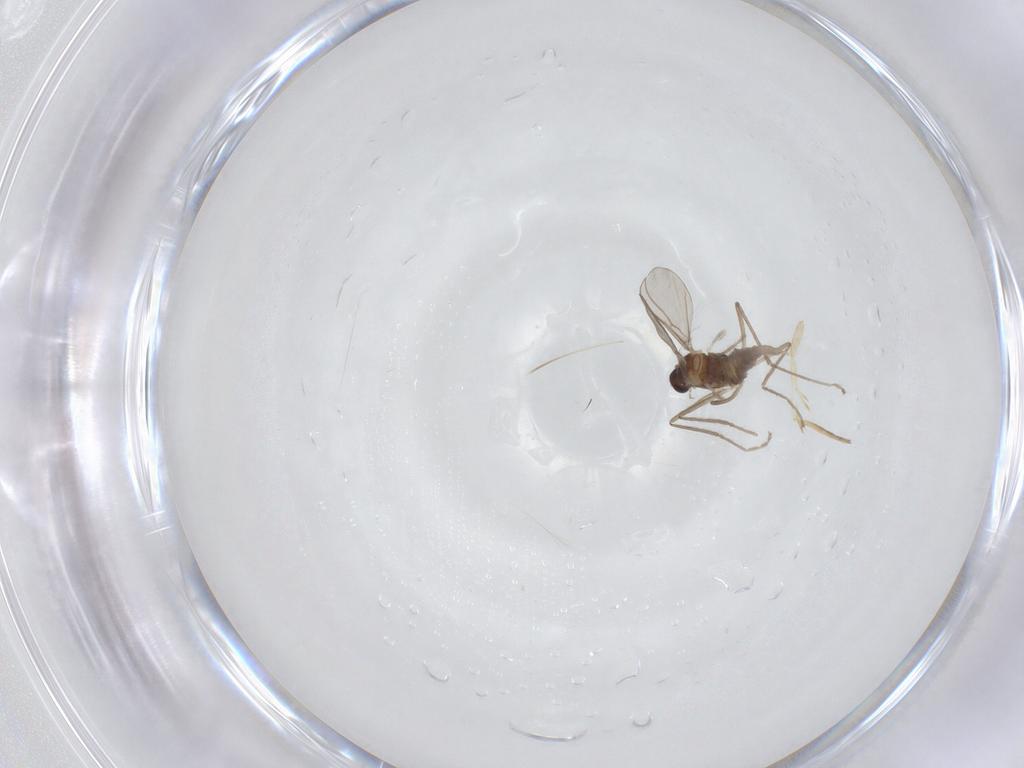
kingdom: Animalia
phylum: Arthropoda
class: Insecta
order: Diptera
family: Cecidomyiidae
